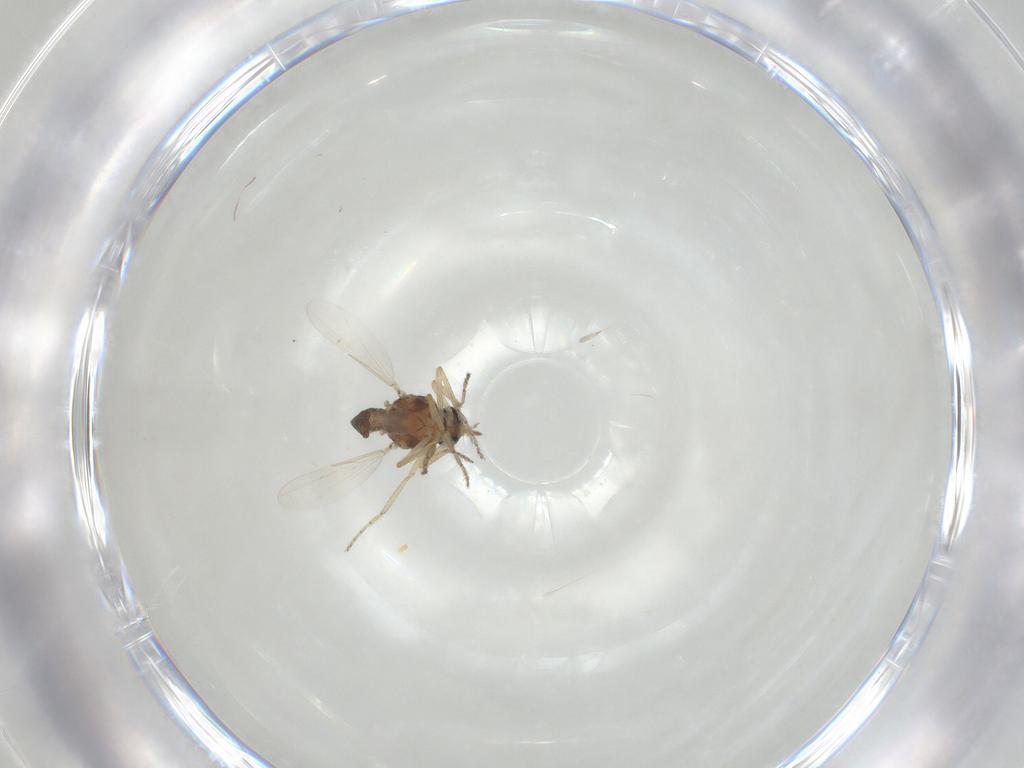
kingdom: Animalia
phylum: Arthropoda
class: Insecta
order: Diptera
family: Ceratopogonidae
